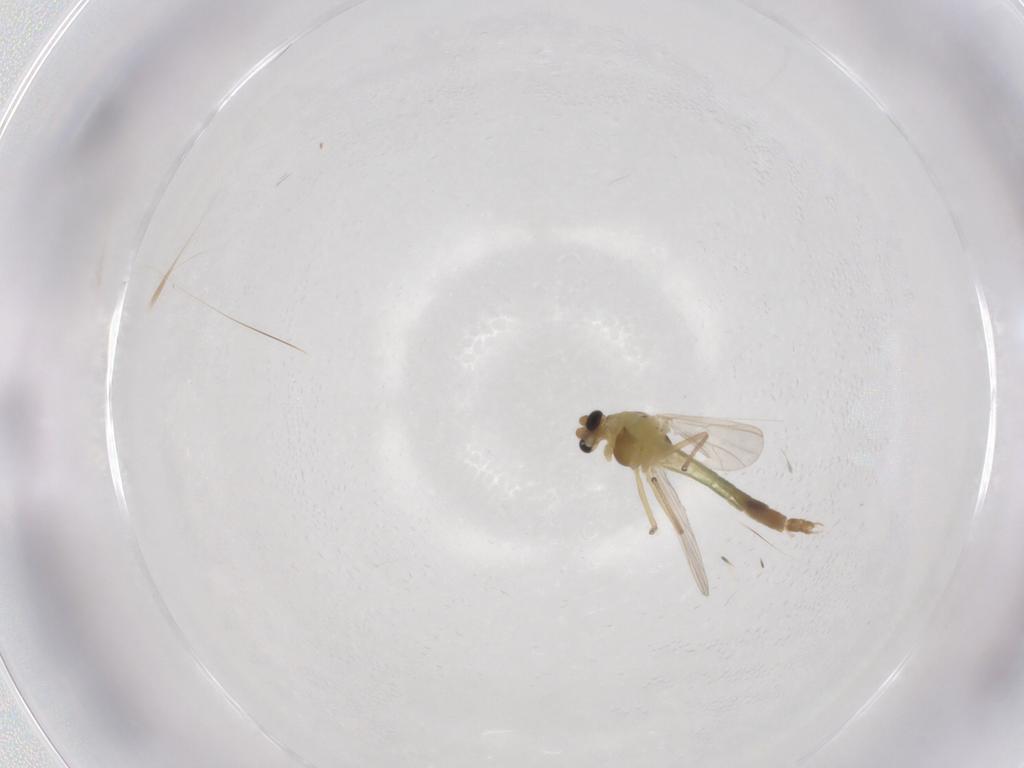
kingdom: Animalia
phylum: Arthropoda
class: Insecta
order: Diptera
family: Chironomidae
